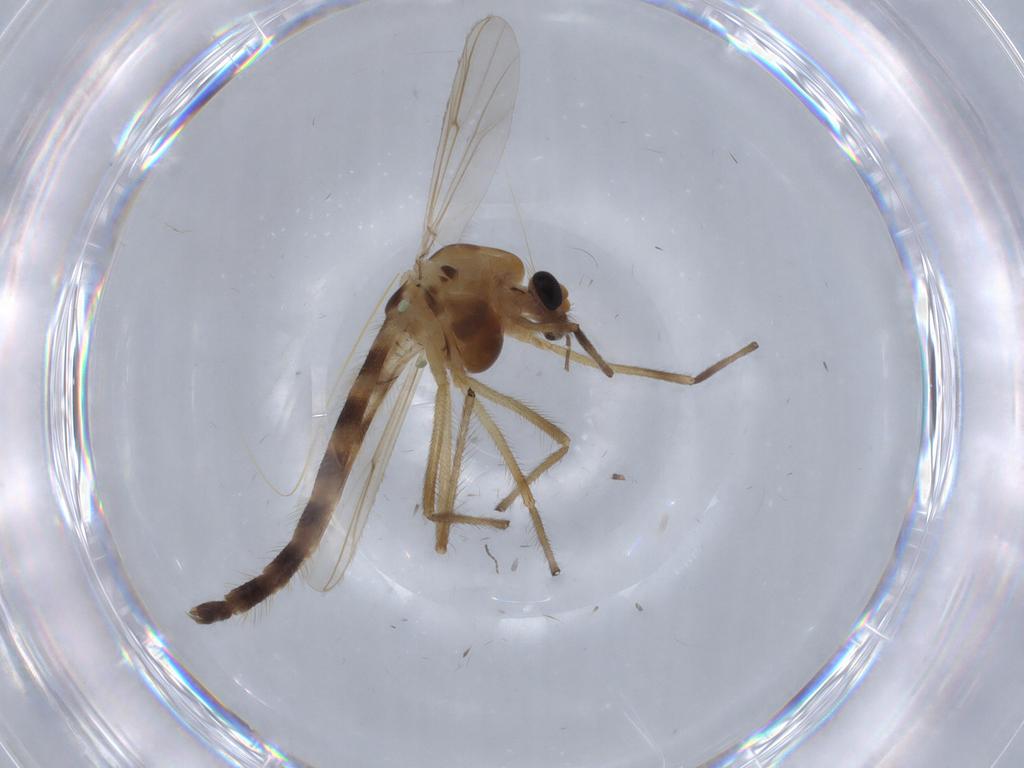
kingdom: Animalia
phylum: Arthropoda
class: Insecta
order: Diptera
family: Chironomidae
